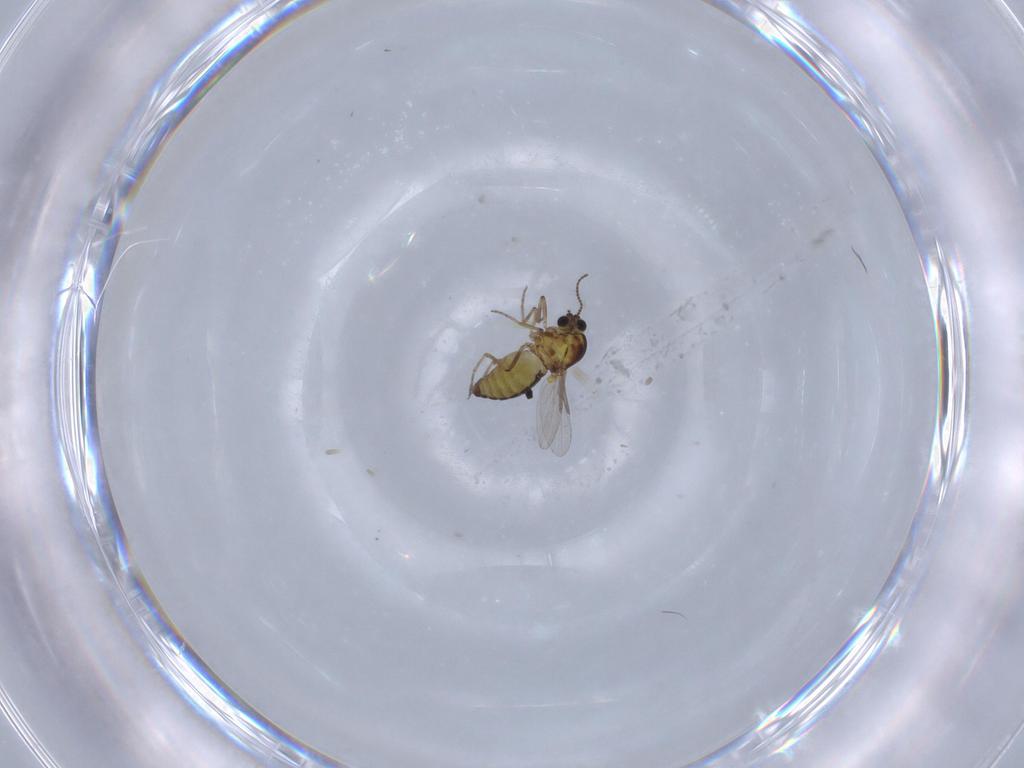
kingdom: Animalia
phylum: Arthropoda
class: Insecta
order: Diptera
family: Ceratopogonidae
